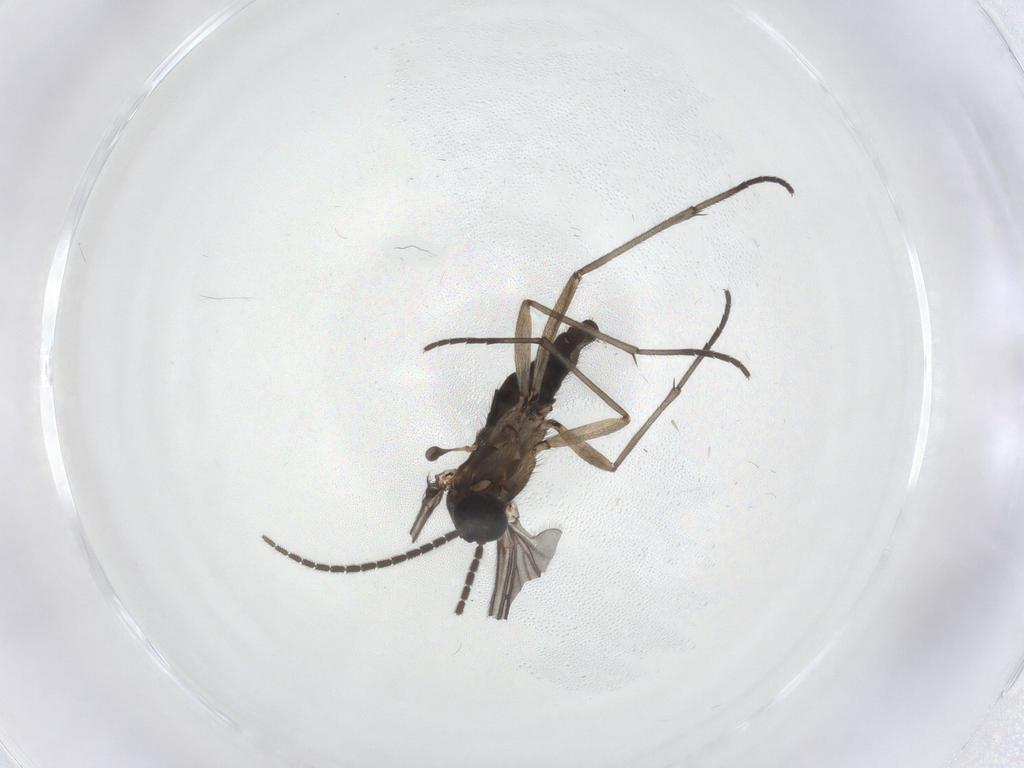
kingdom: Animalia
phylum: Arthropoda
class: Insecta
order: Diptera
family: Sciaridae
